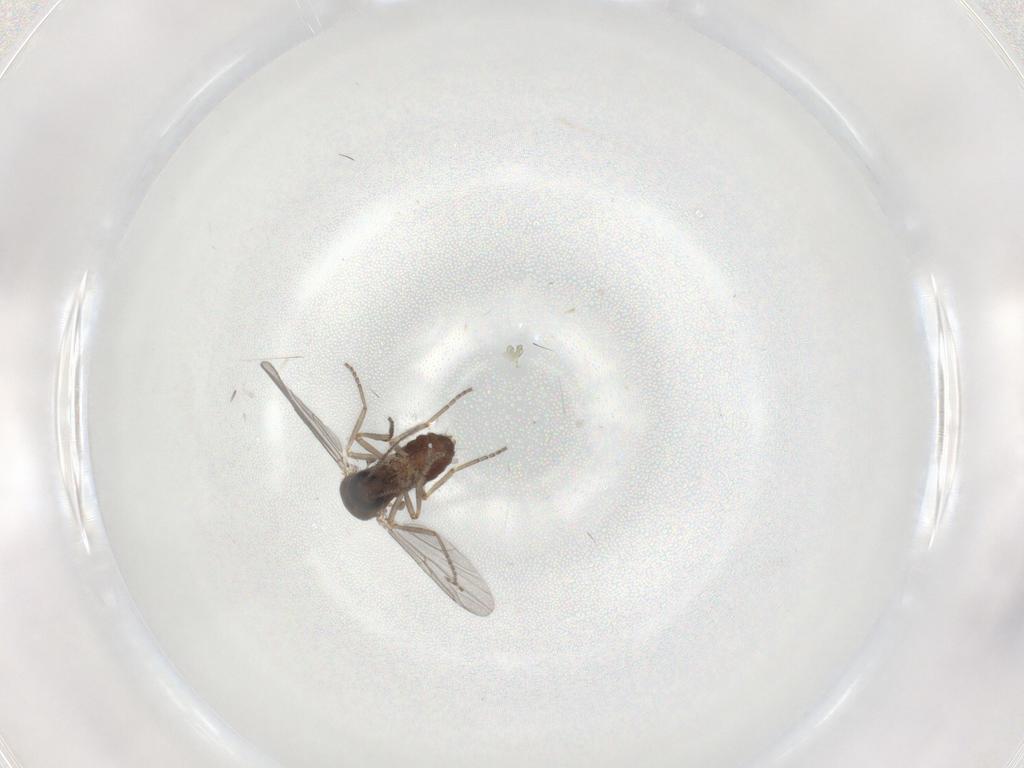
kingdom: Animalia
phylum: Arthropoda
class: Insecta
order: Diptera
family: Ceratopogonidae
